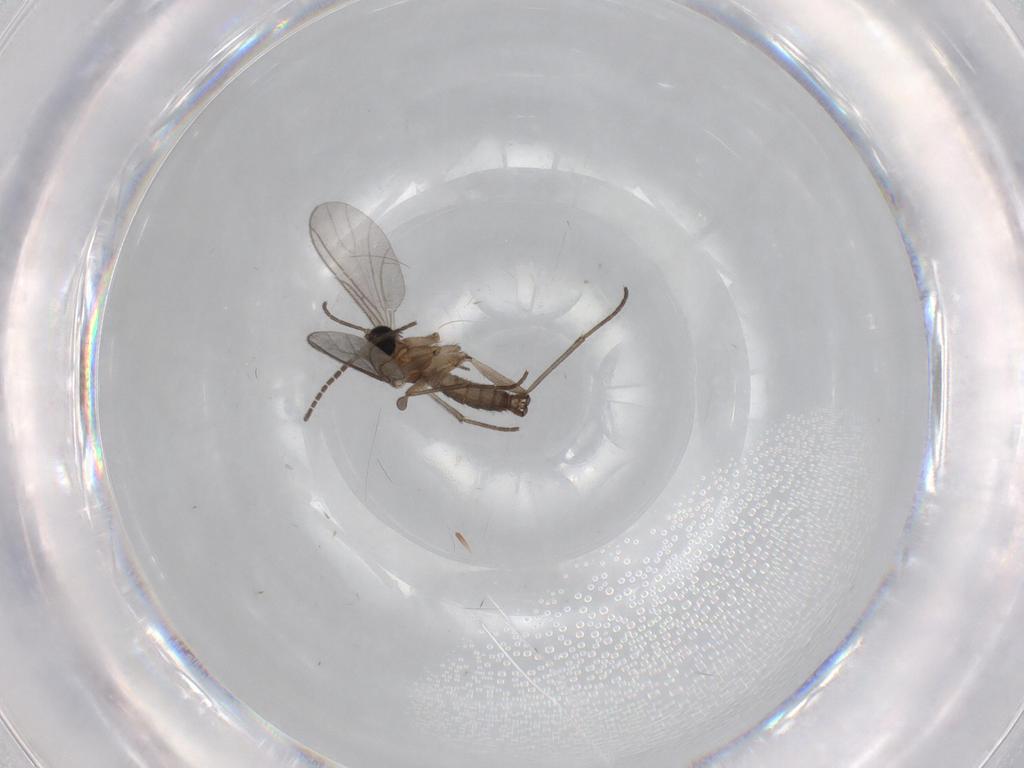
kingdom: Animalia
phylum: Arthropoda
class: Insecta
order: Diptera
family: Sciaridae
